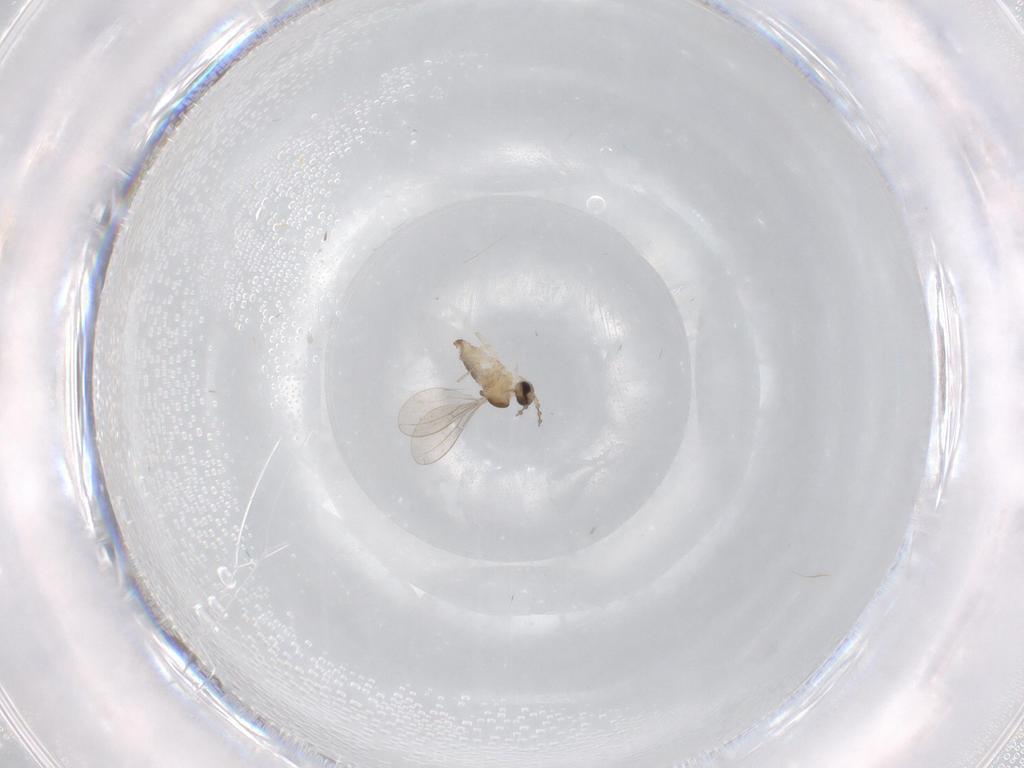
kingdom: Animalia
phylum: Arthropoda
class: Insecta
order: Diptera
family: Cecidomyiidae
